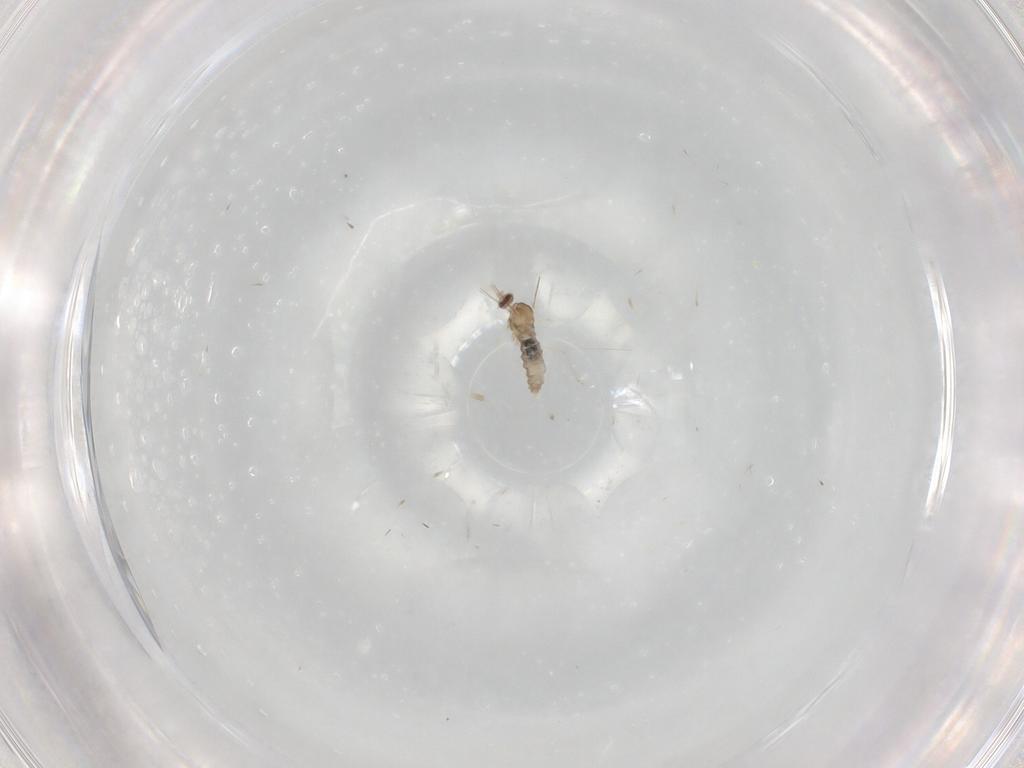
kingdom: Animalia
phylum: Arthropoda
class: Insecta
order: Diptera
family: Cecidomyiidae
